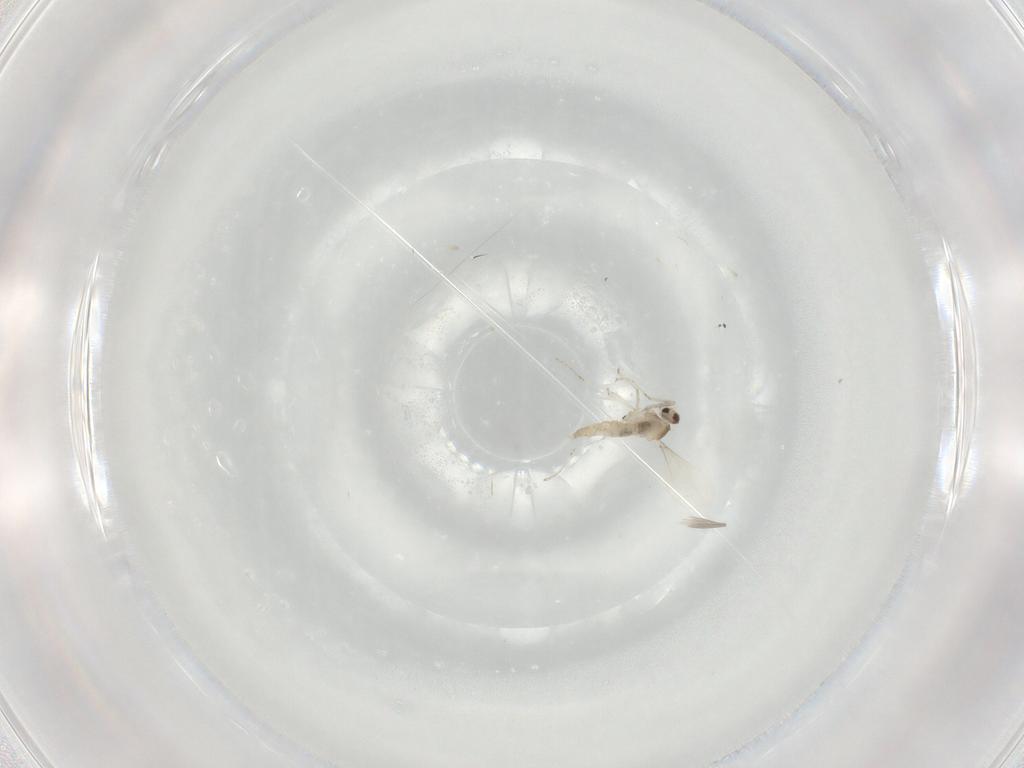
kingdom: Animalia
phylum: Arthropoda
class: Insecta
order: Diptera
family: Cecidomyiidae
